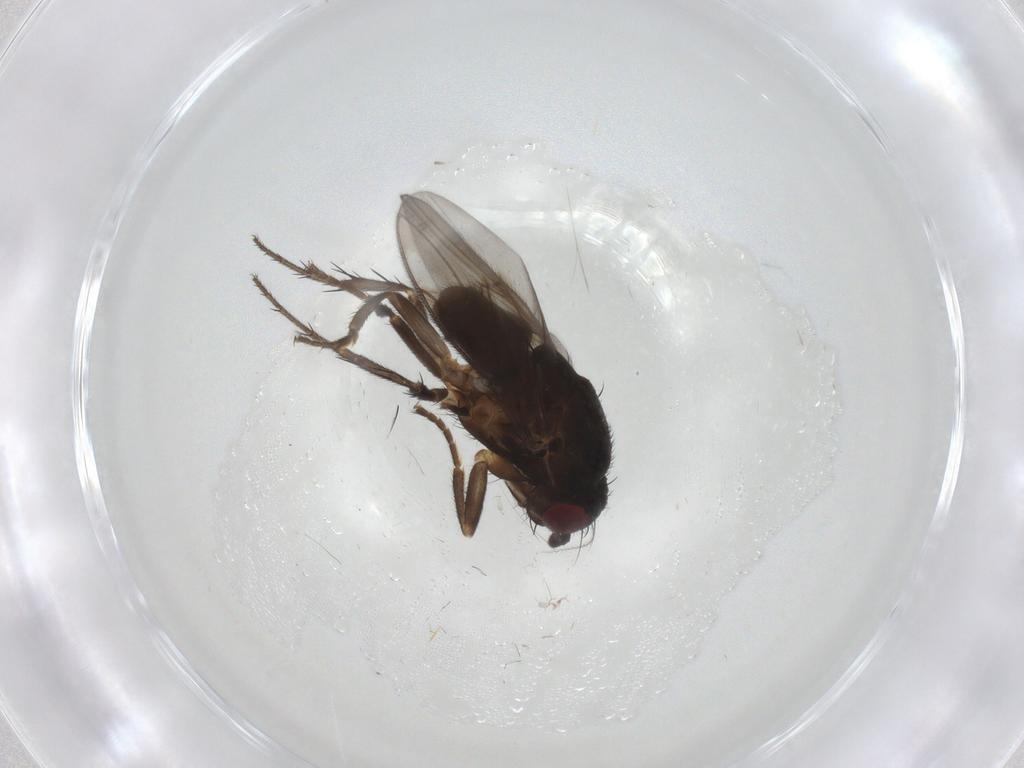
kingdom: Animalia
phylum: Arthropoda
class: Insecta
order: Diptera
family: Sphaeroceridae
